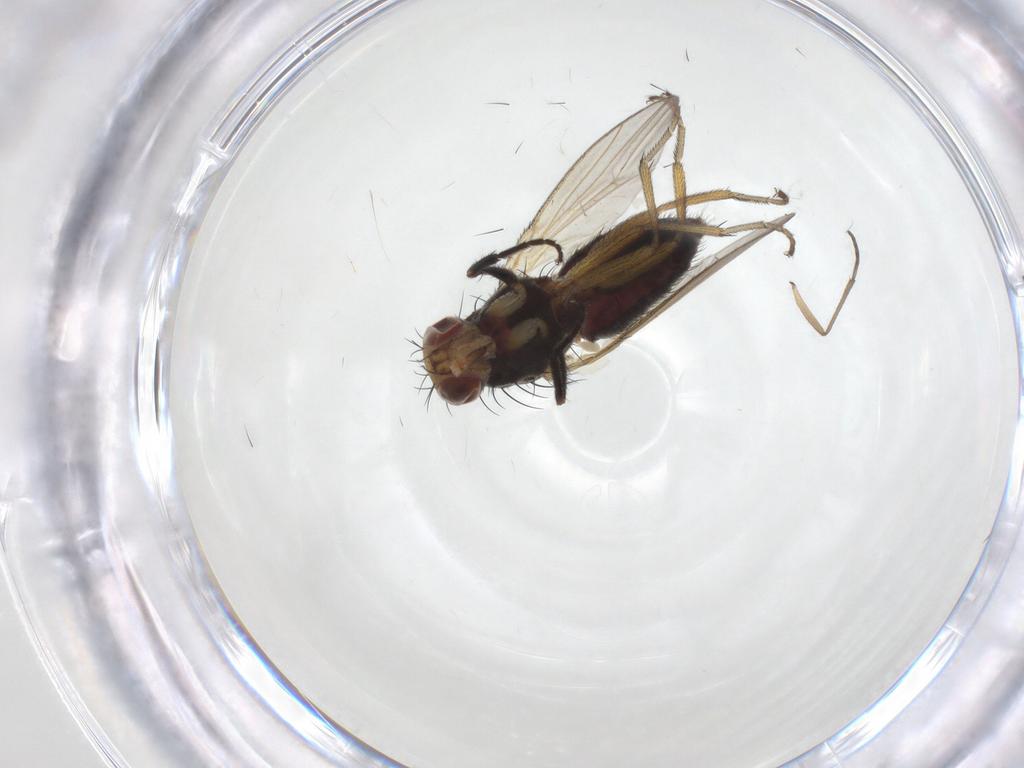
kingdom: Animalia
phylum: Arthropoda
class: Insecta
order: Diptera
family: Heleomyzidae
